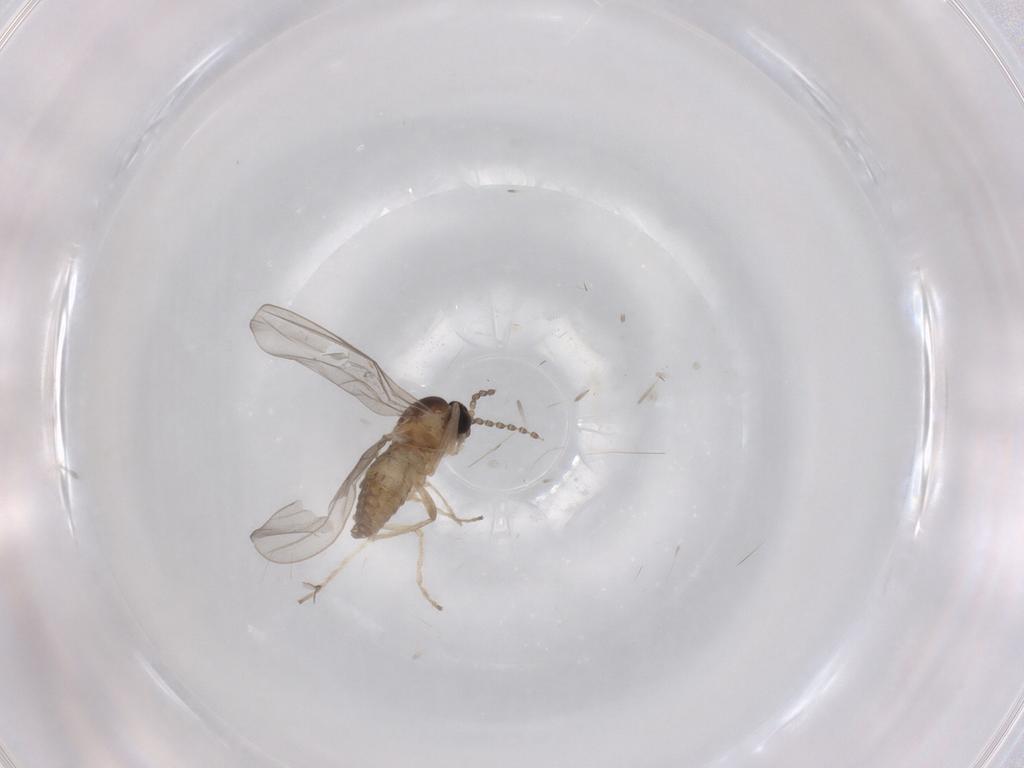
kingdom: Animalia
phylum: Arthropoda
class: Insecta
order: Diptera
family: Cecidomyiidae
